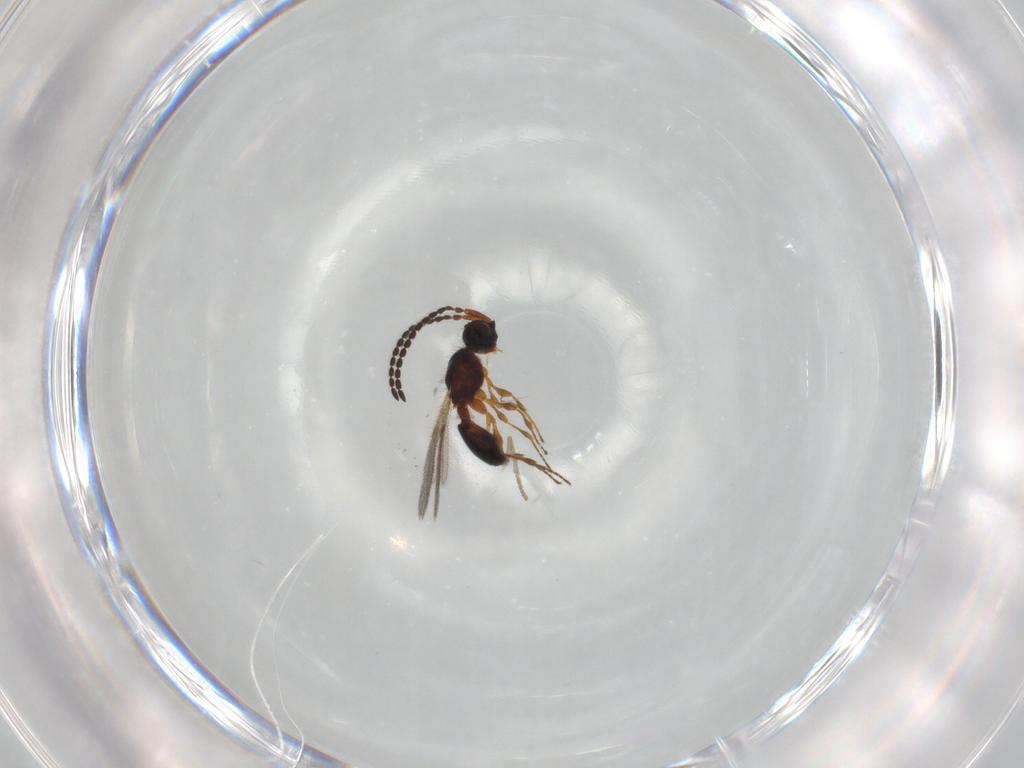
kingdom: Animalia
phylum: Arthropoda
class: Insecta
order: Hymenoptera
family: Diapriidae
